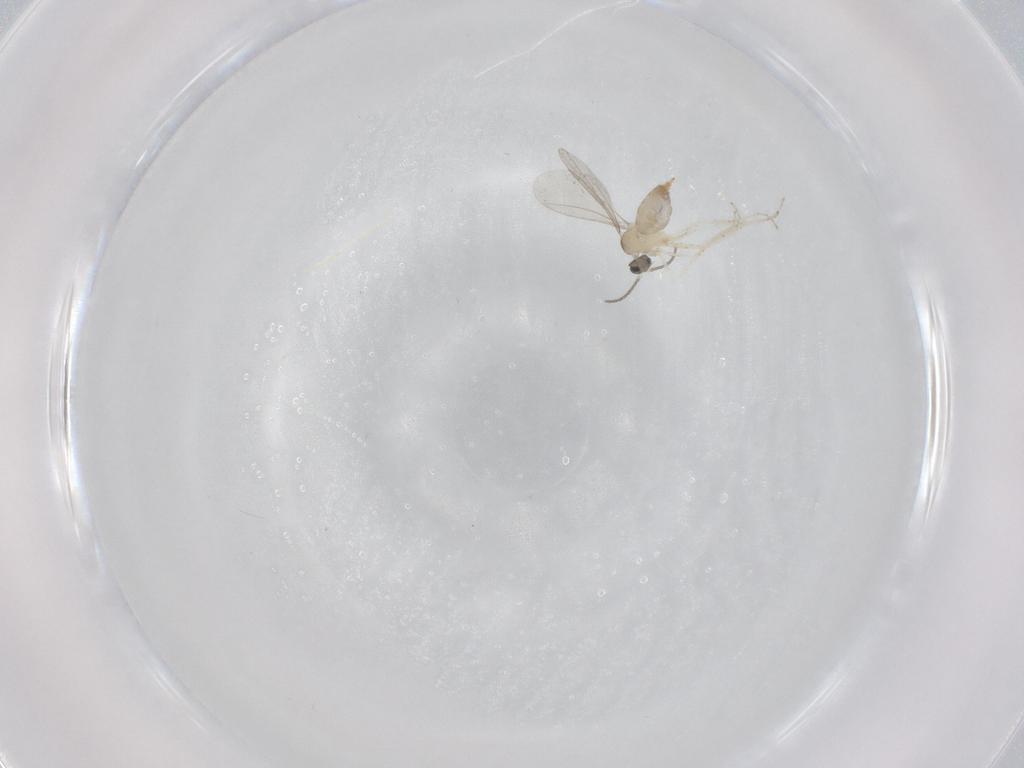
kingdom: Animalia
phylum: Arthropoda
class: Insecta
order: Diptera
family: Cecidomyiidae
